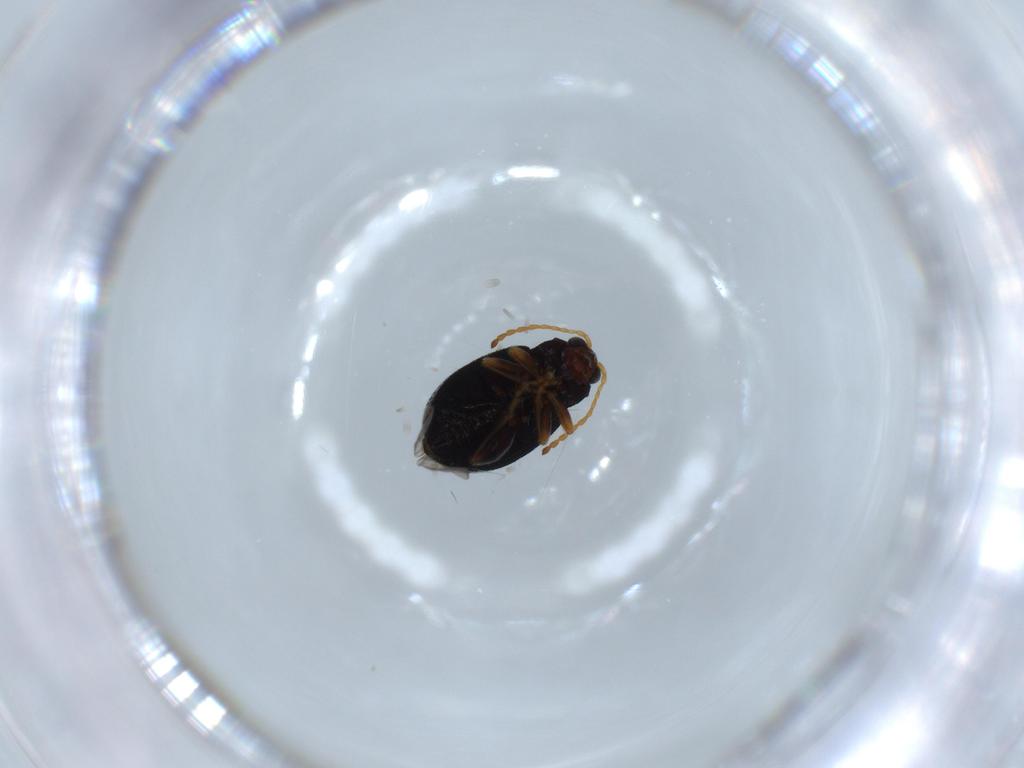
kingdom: Animalia
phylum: Arthropoda
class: Insecta
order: Coleoptera
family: Chrysomelidae
